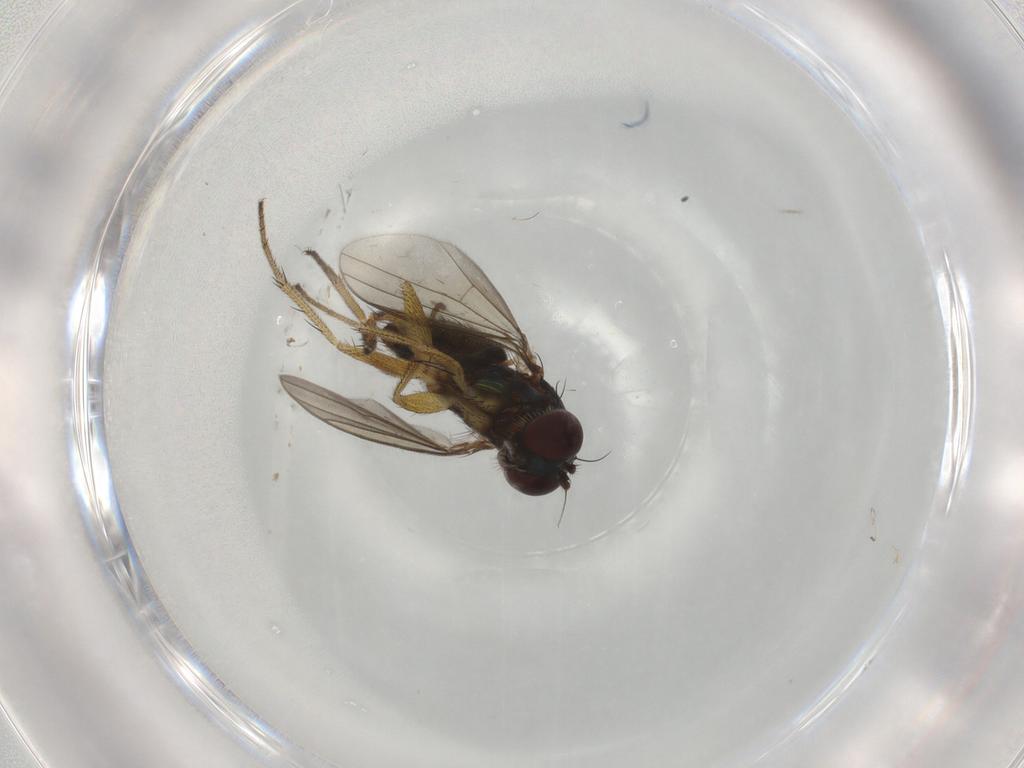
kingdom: Animalia
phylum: Arthropoda
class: Insecta
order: Diptera
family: Dolichopodidae
